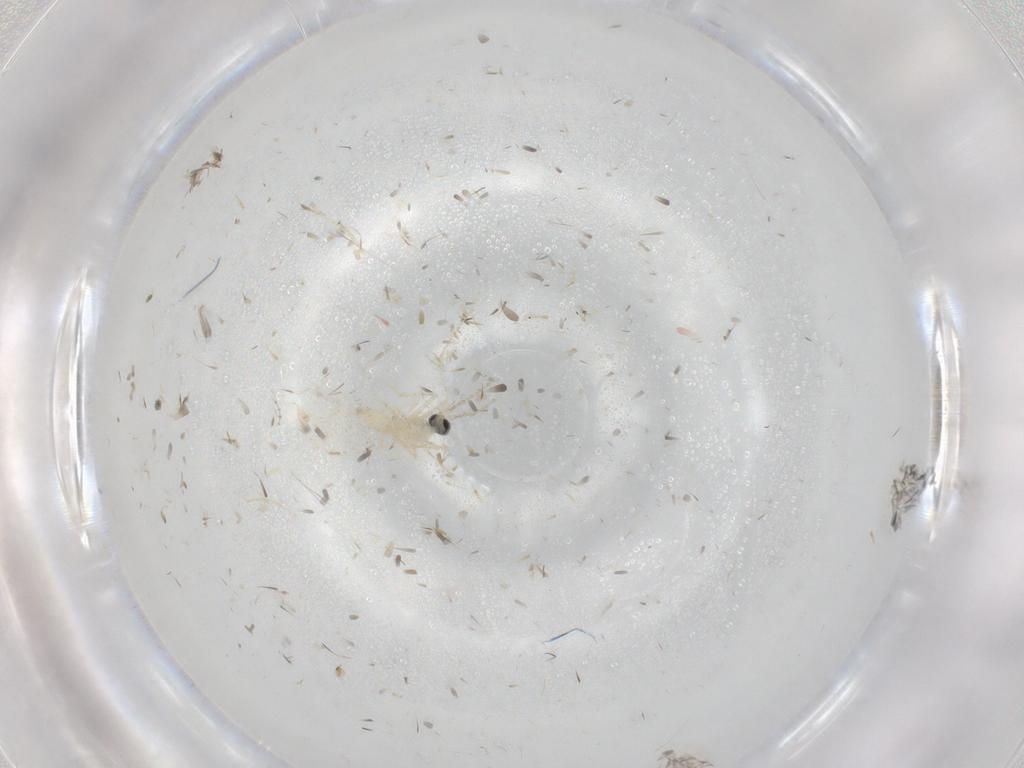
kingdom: Animalia
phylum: Arthropoda
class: Insecta
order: Diptera
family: Cecidomyiidae
